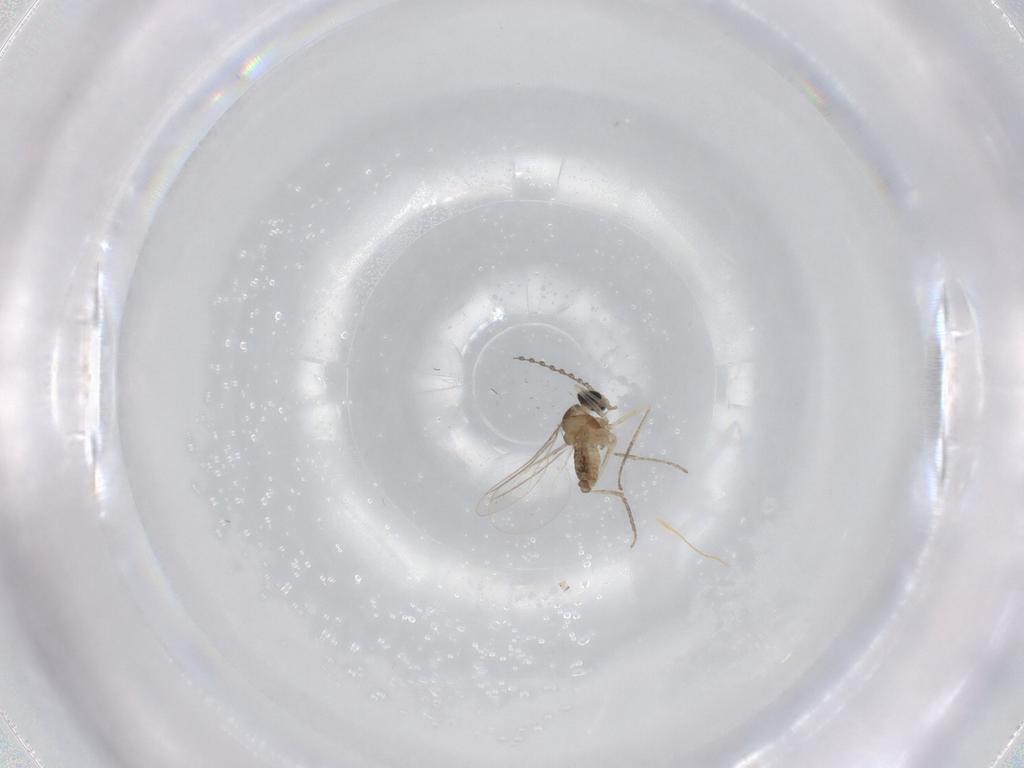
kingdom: Animalia
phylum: Arthropoda
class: Insecta
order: Diptera
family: Cecidomyiidae
